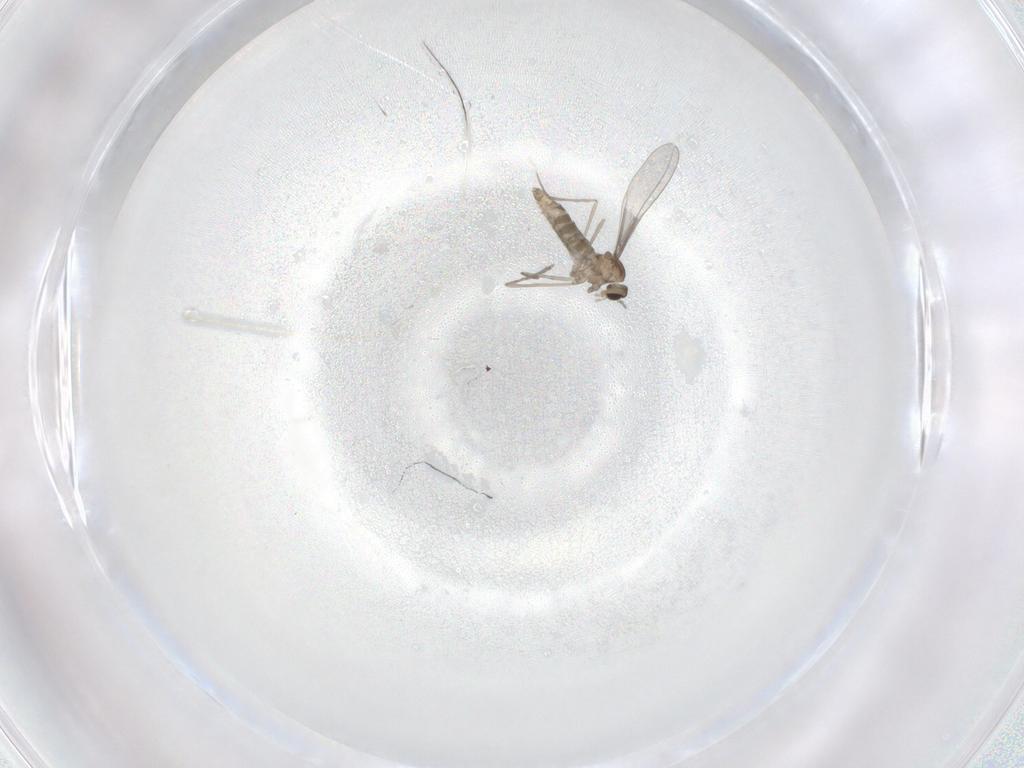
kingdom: Animalia
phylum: Arthropoda
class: Insecta
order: Diptera
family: Cecidomyiidae
